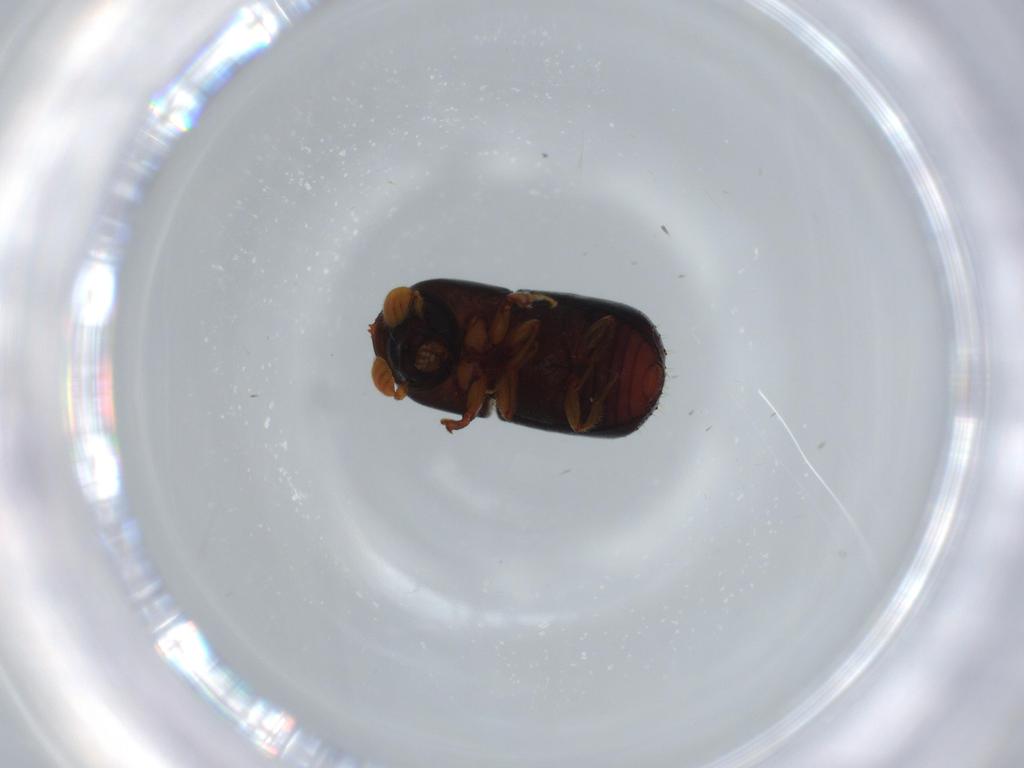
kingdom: Animalia
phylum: Arthropoda
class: Insecta
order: Coleoptera
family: Curculionidae
